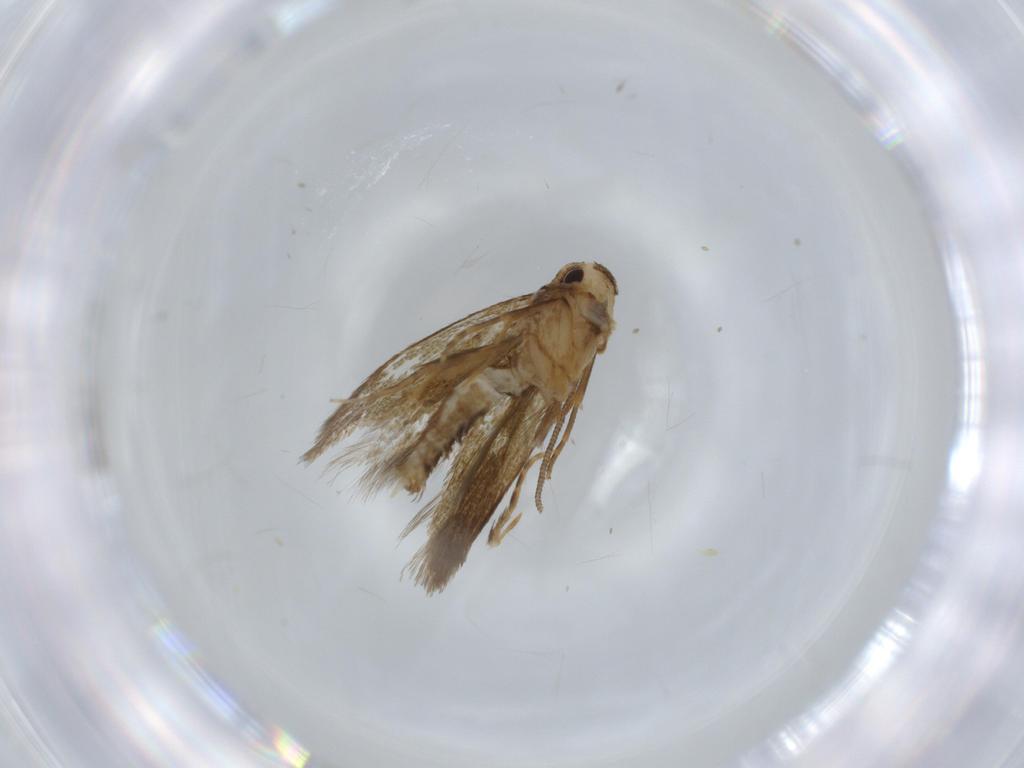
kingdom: Animalia
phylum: Arthropoda
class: Insecta
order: Lepidoptera
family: Tineidae
